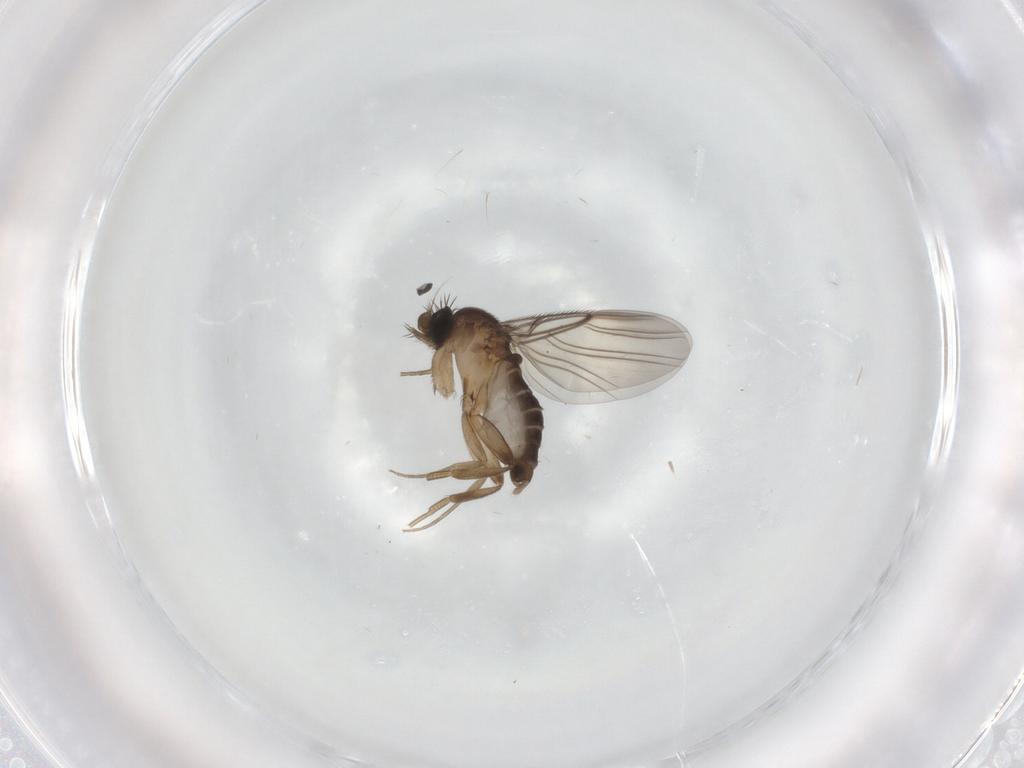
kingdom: Animalia
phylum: Arthropoda
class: Insecta
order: Diptera
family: Phoridae
